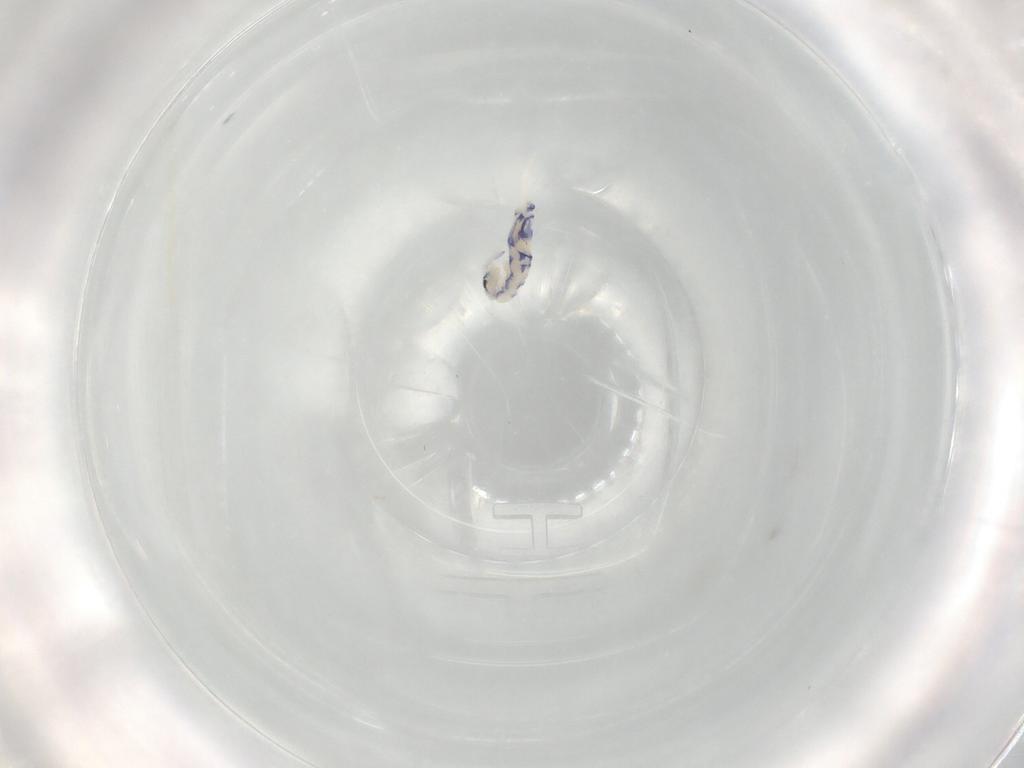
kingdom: Animalia
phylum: Arthropoda
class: Collembola
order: Entomobryomorpha
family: Entomobryidae
